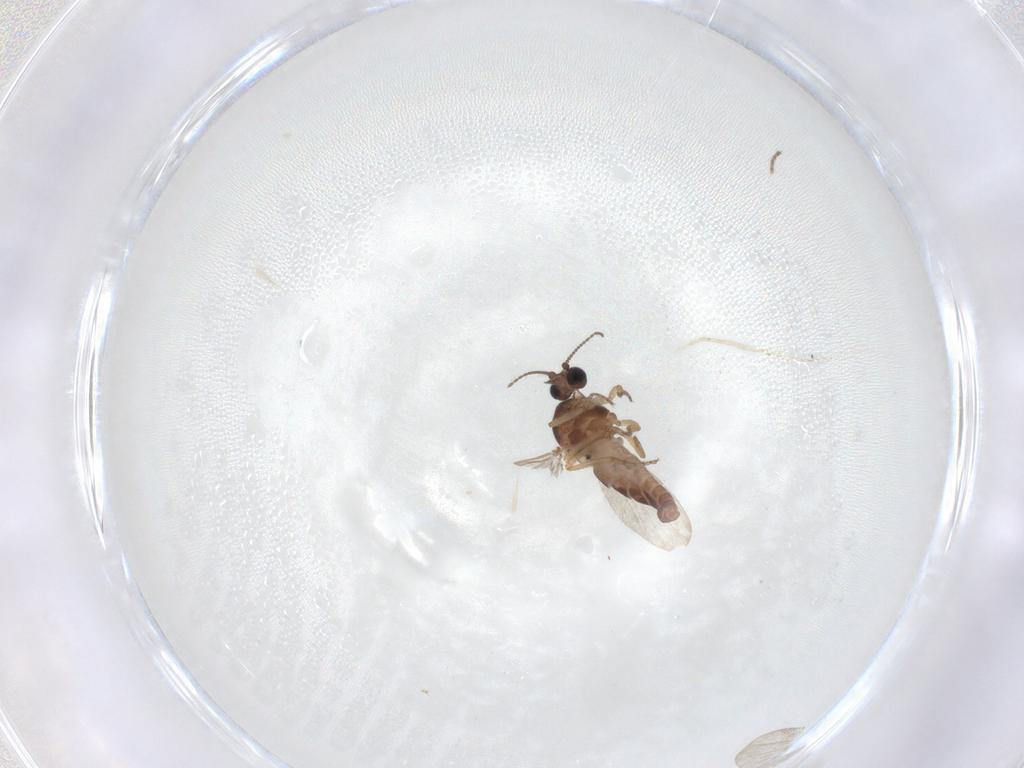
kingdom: Animalia
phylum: Arthropoda
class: Insecta
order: Diptera
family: Ceratopogonidae
